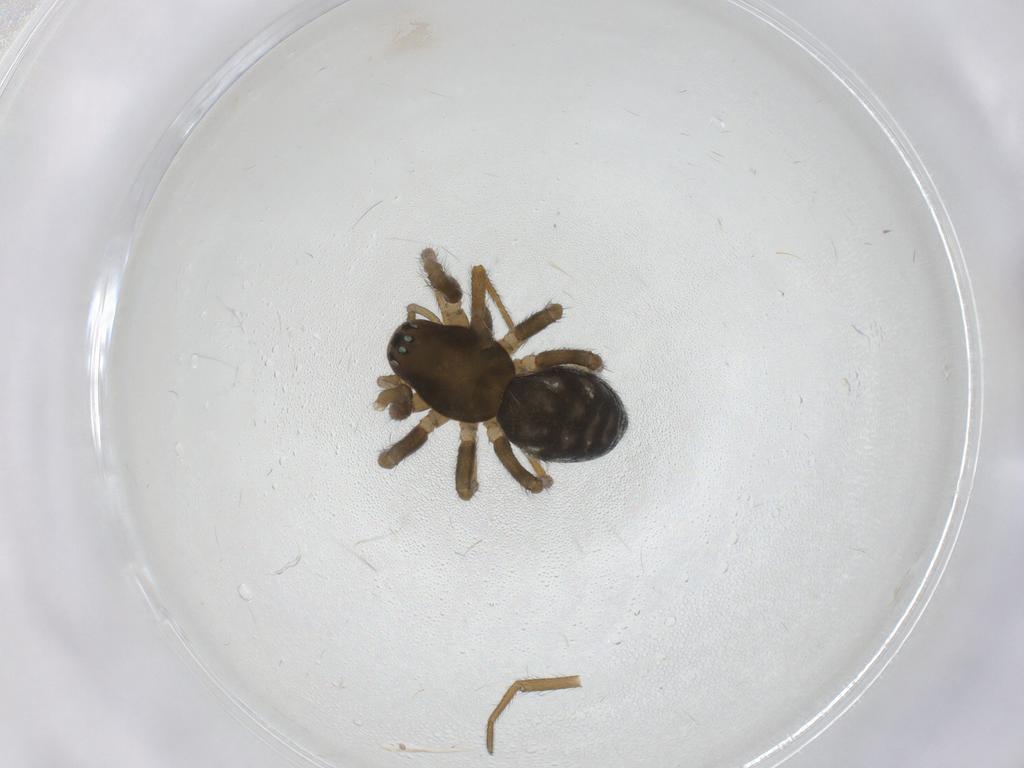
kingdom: Animalia
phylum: Arthropoda
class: Arachnida
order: Araneae
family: Theridiidae
